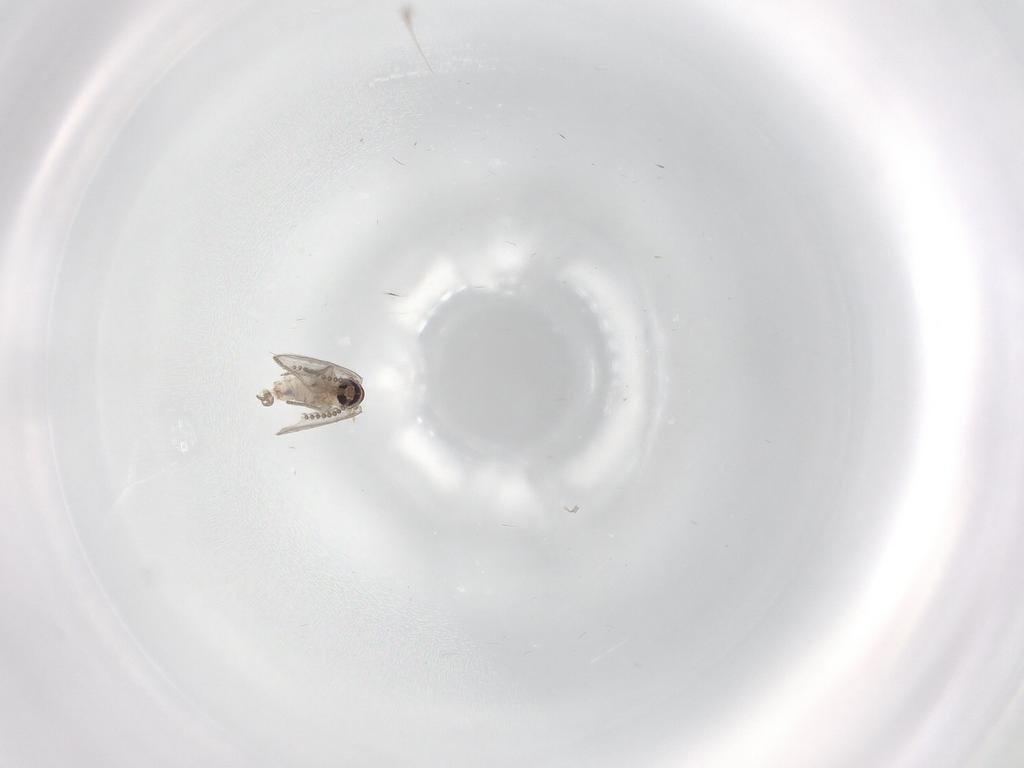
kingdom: Animalia
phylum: Arthropoda
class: Insecta
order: Diptera
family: Psychodidae
